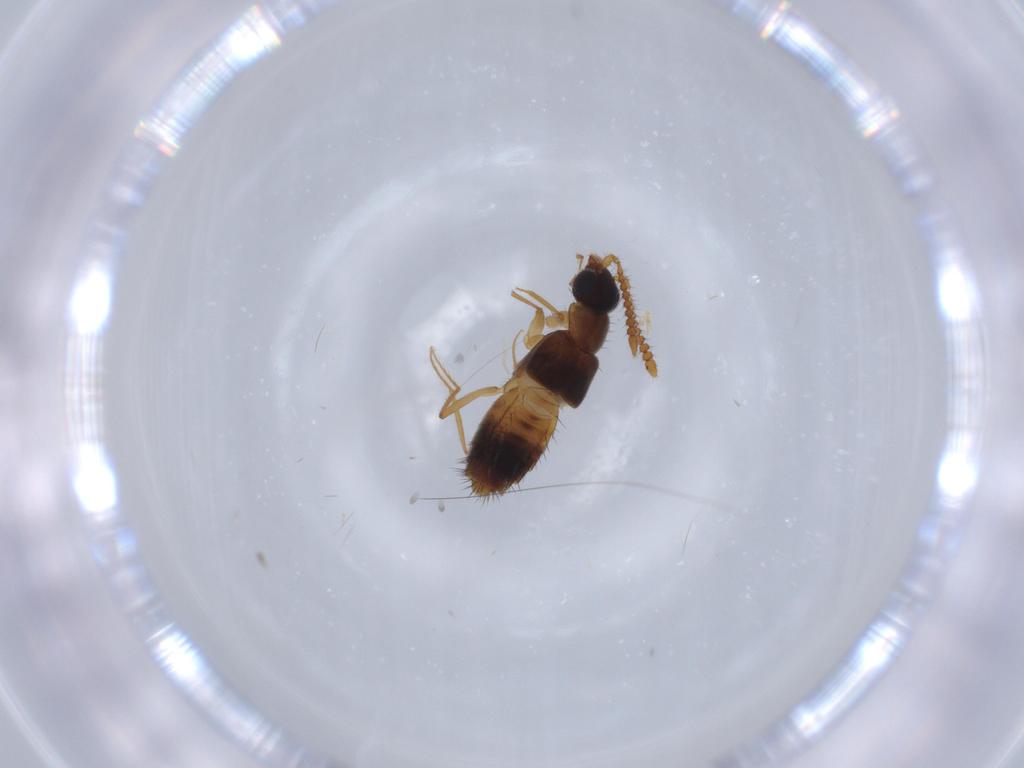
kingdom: Animalia
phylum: Arthropoda
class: Insecta
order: Coleoptera
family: Staphylinidae
